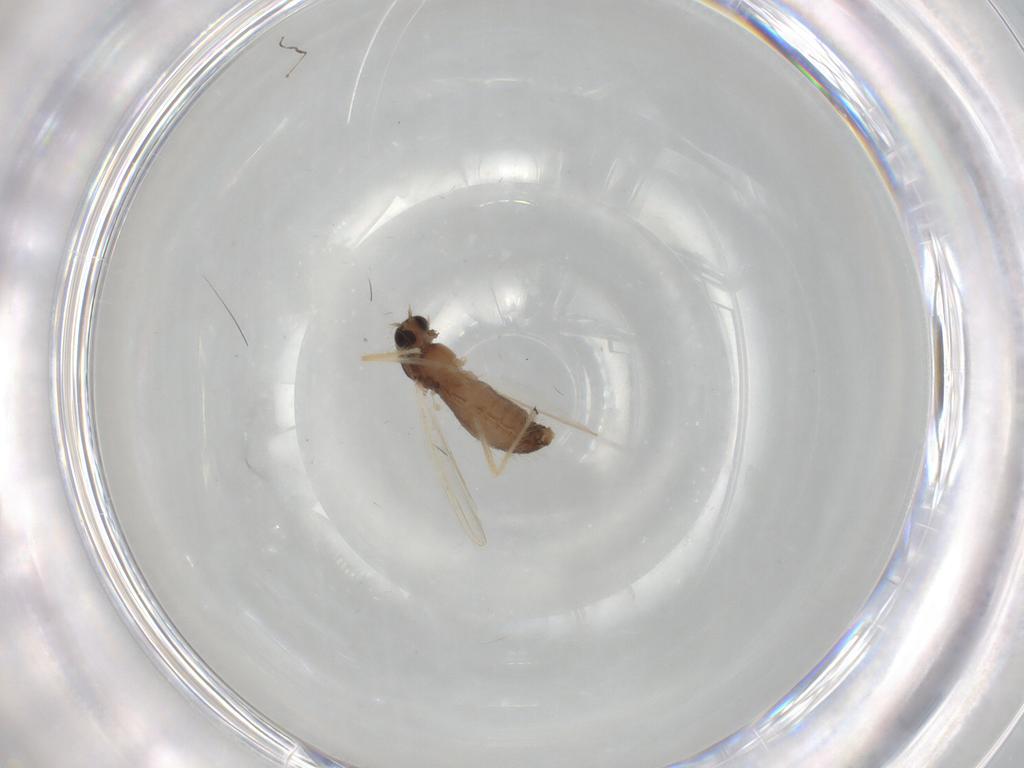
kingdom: Animalia
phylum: Arthropoda
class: Insecta
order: Diptera
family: Chironomidae
